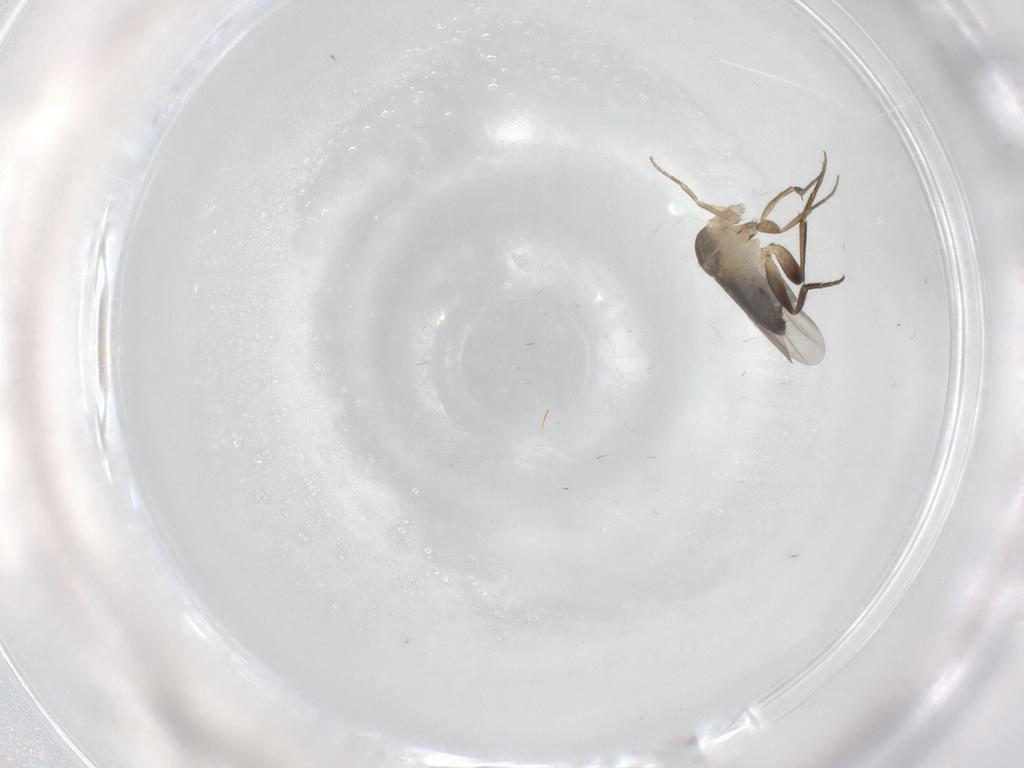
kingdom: Animalia
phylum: Arthropoda
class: Insecta
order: Diptera
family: Phoridae
